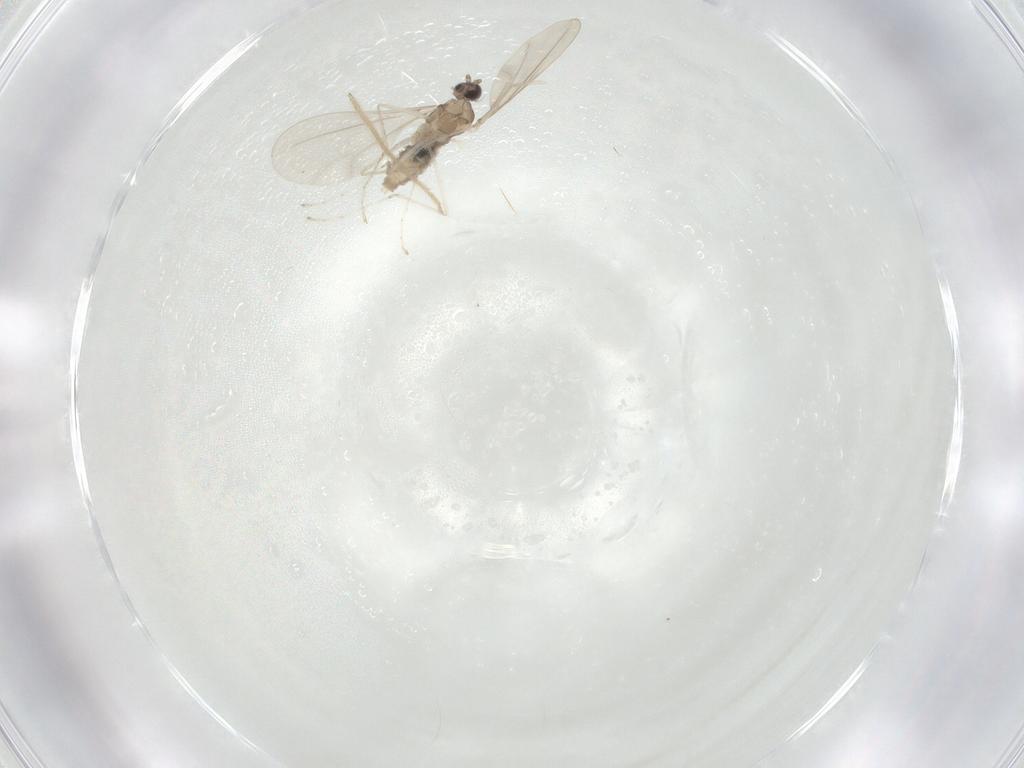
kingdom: Animalia
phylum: Arthropoda
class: Insecta
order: Diptera
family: Cecidomyiidae
